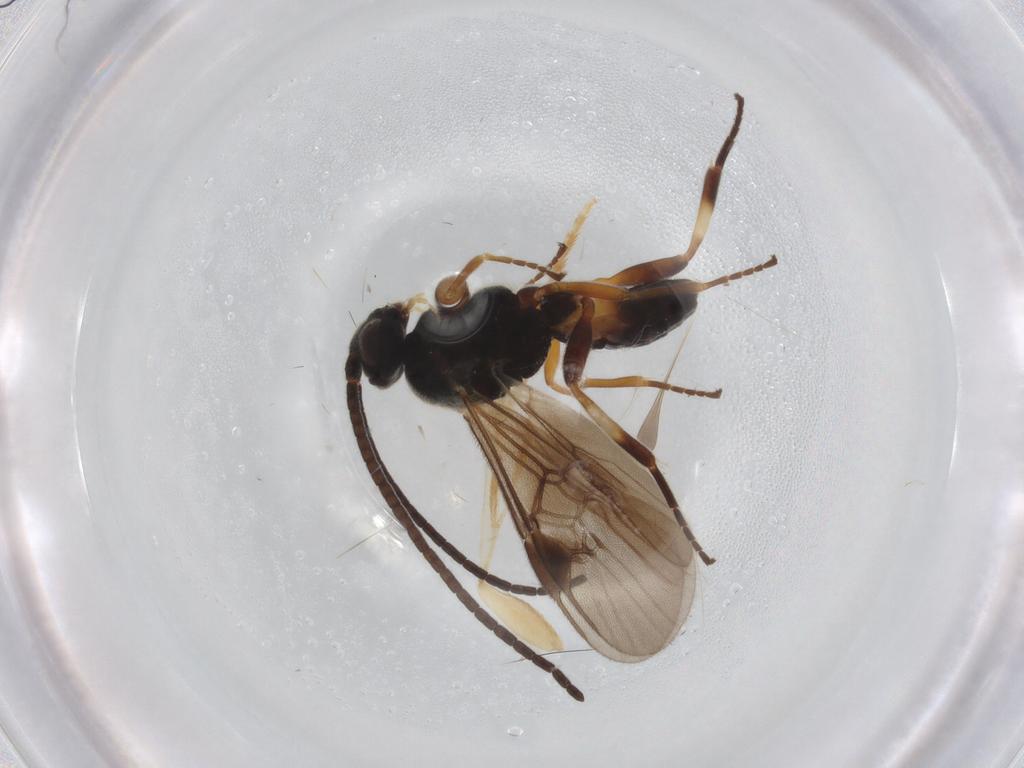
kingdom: Animalia
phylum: Arthropoda
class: Insecta
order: Hymenoptera
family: Braconidae
